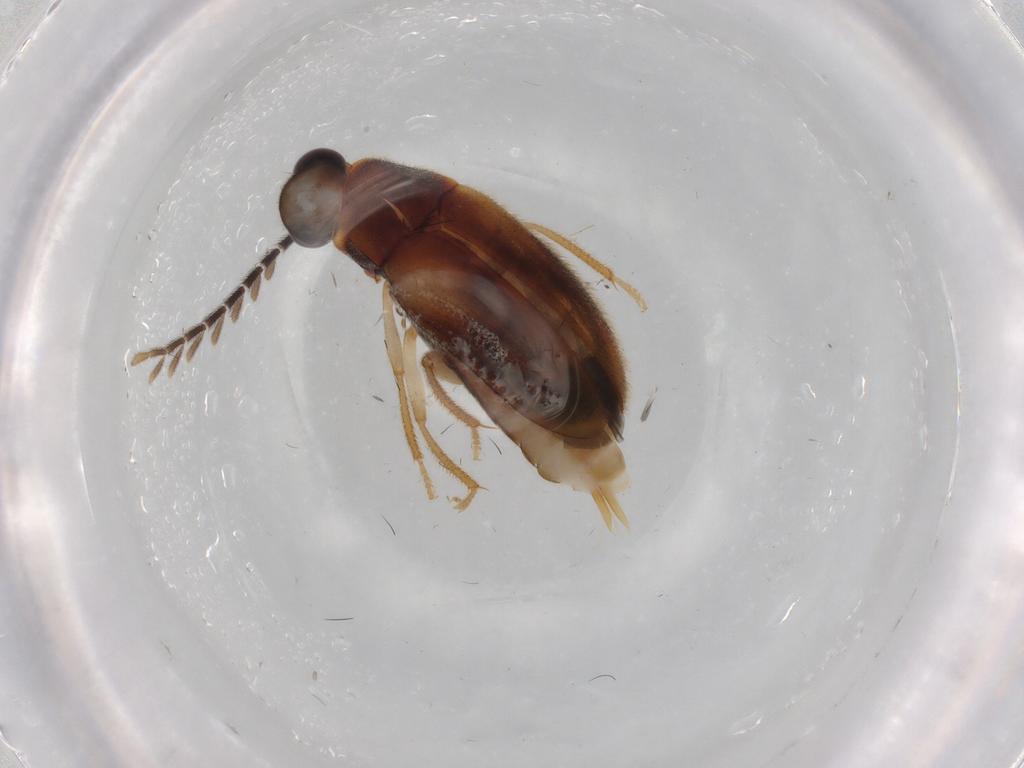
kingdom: Animalia
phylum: Arthropoda
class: Insecta
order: Coleoptera
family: Ptilodactylidae
